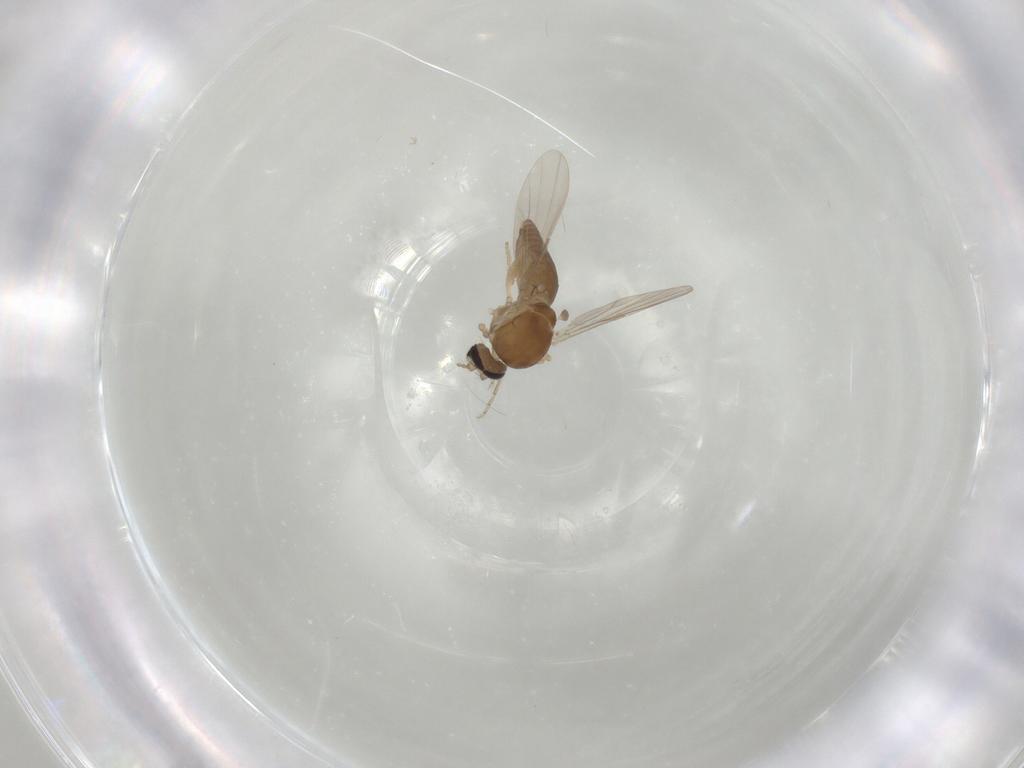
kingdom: Animalia
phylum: Arthropoda
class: Insecta
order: Diptera
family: Ceratopogonidae
